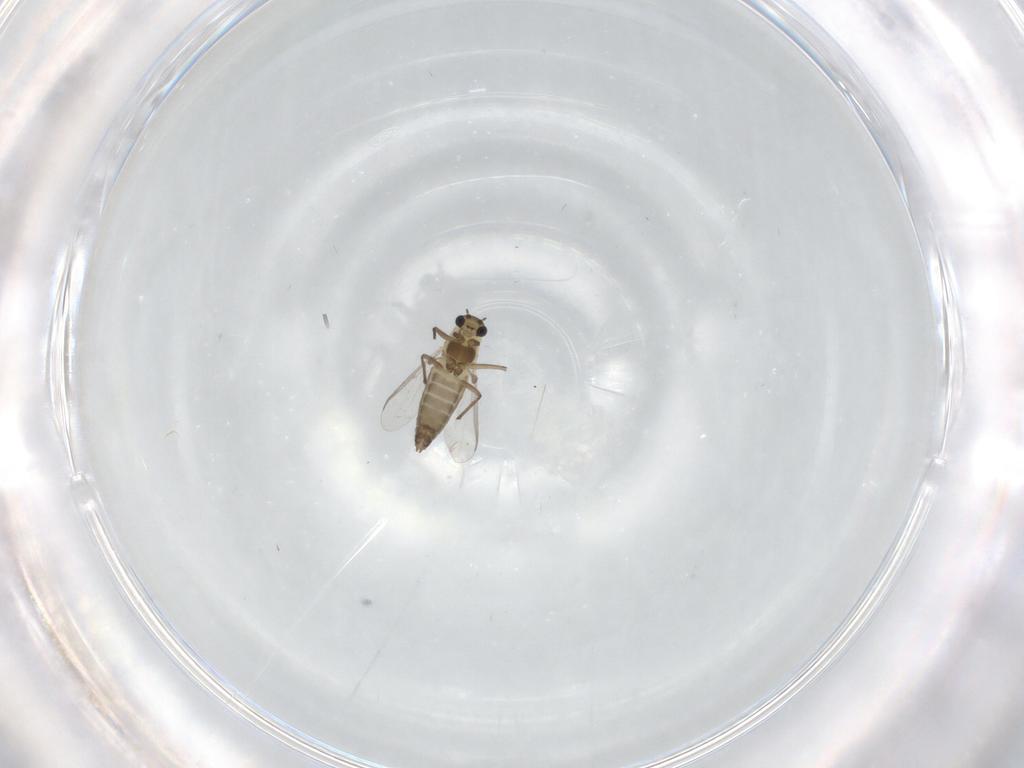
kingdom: Animalia
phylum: Arthropoda
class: Insecta
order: Diptera
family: Chironomidae
